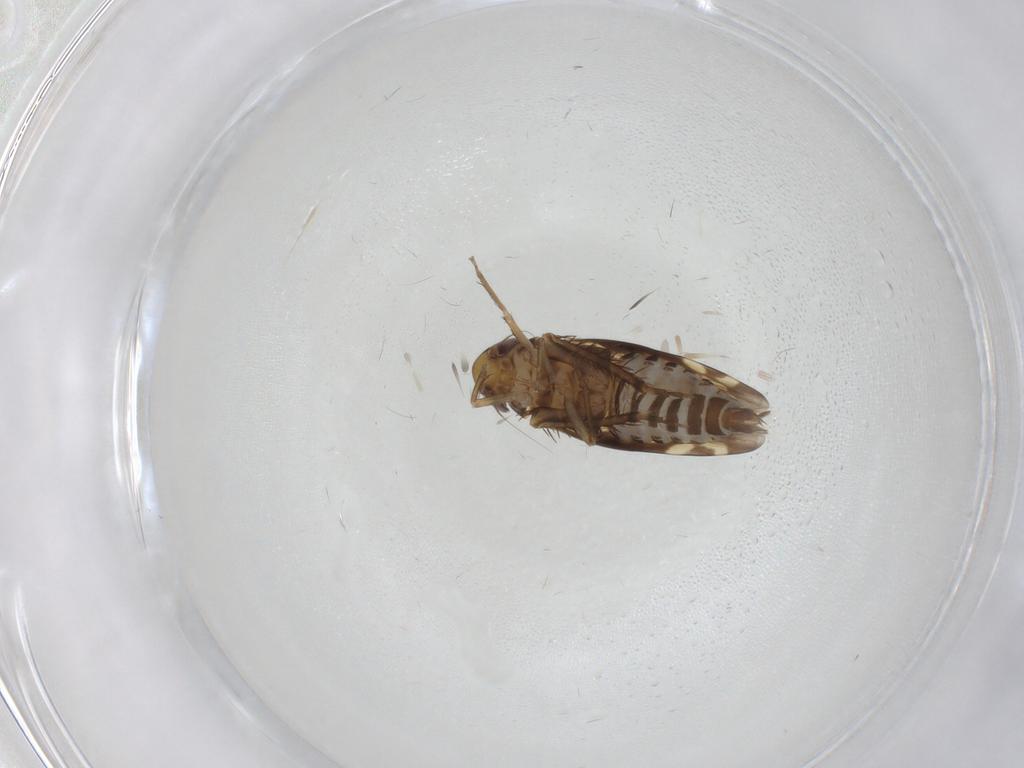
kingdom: Animalia
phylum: Arthropoda
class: Insecta
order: Hemiptera
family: Cicadellidae
